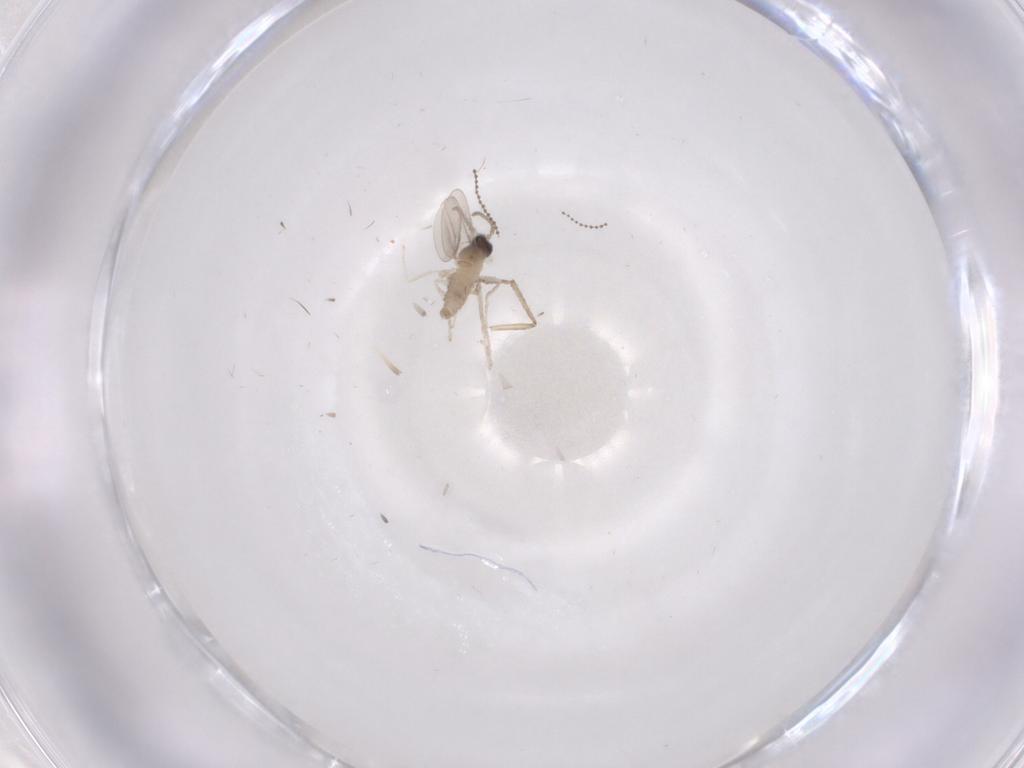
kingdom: Animalia
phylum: Arthropoda
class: Insecta
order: Diptera
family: Cecidomyiidae
